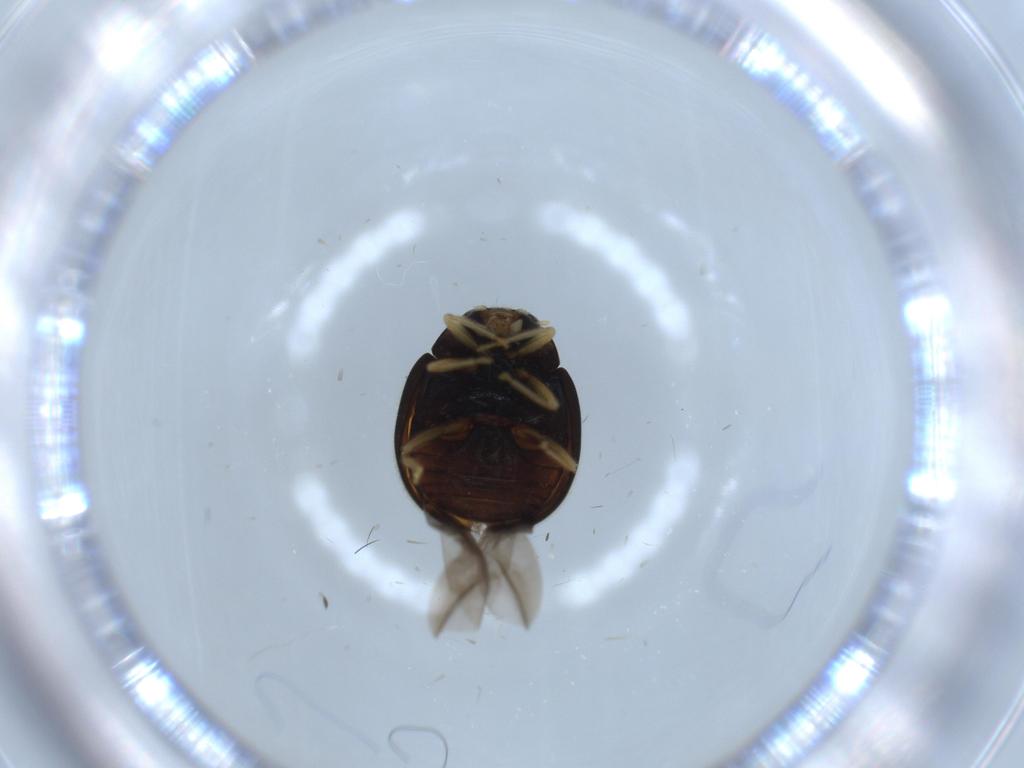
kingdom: Animalia
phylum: Arthropoda
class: Insecta
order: Coleoptera
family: Coccinellidae
